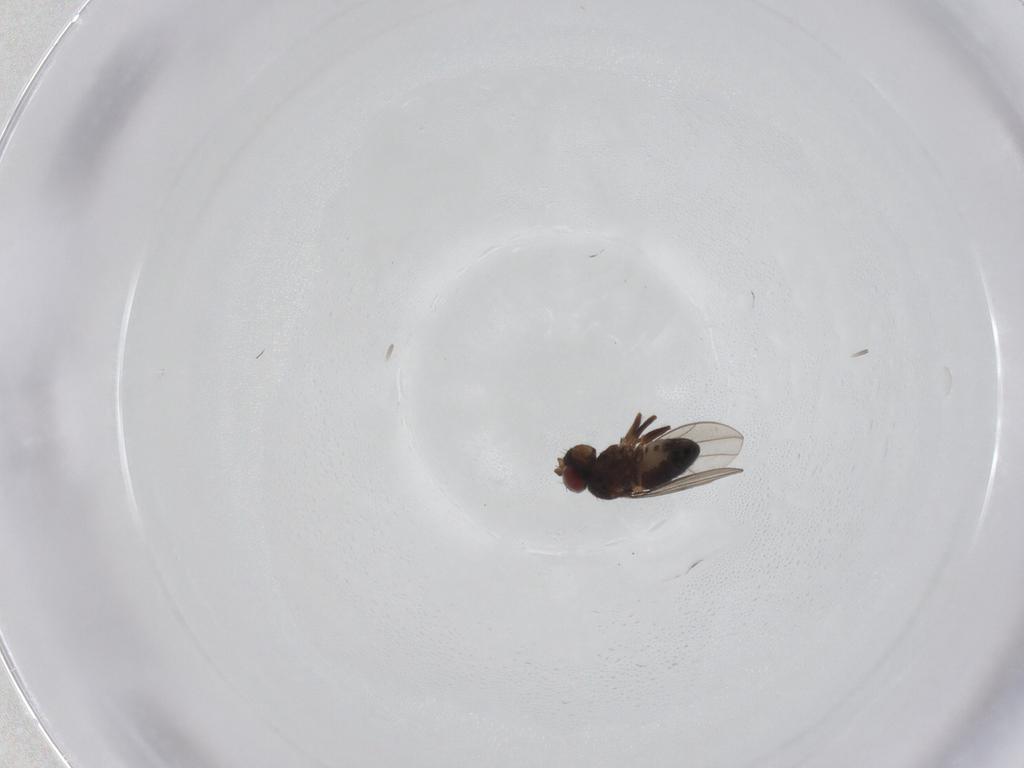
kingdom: Animalia
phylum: Arthropoda
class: Insecta
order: Diptera
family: Ephydridae
